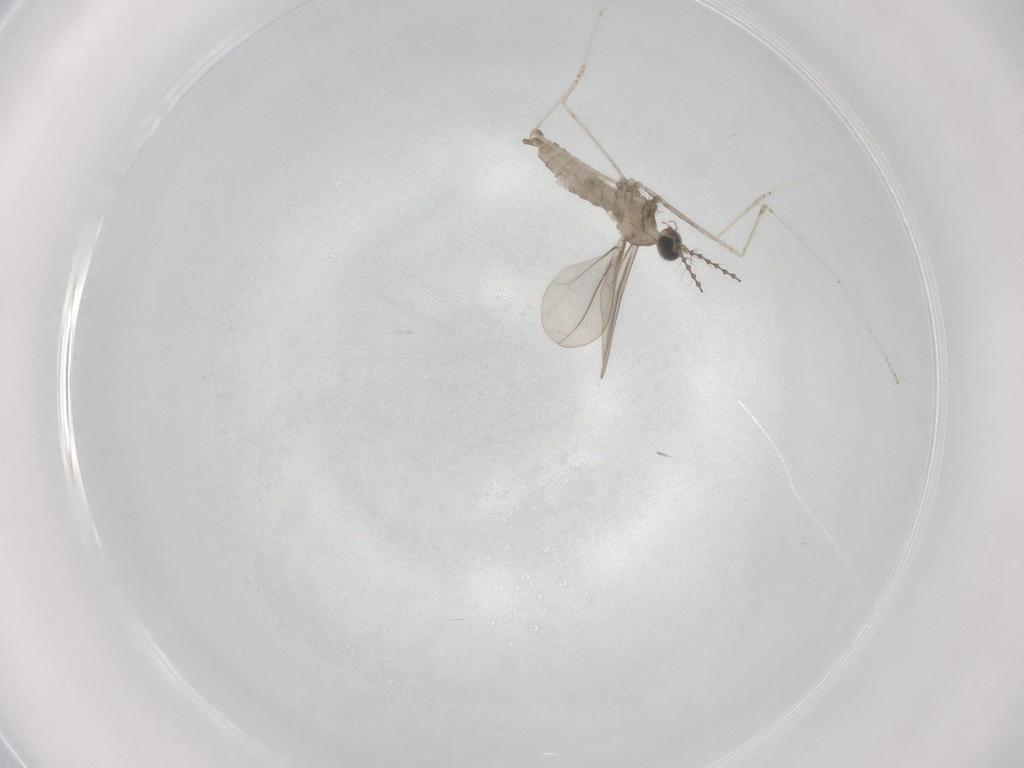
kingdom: Animalia
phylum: Arthropoda
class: Insecta
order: Diptera
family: Cecidomyiidae
